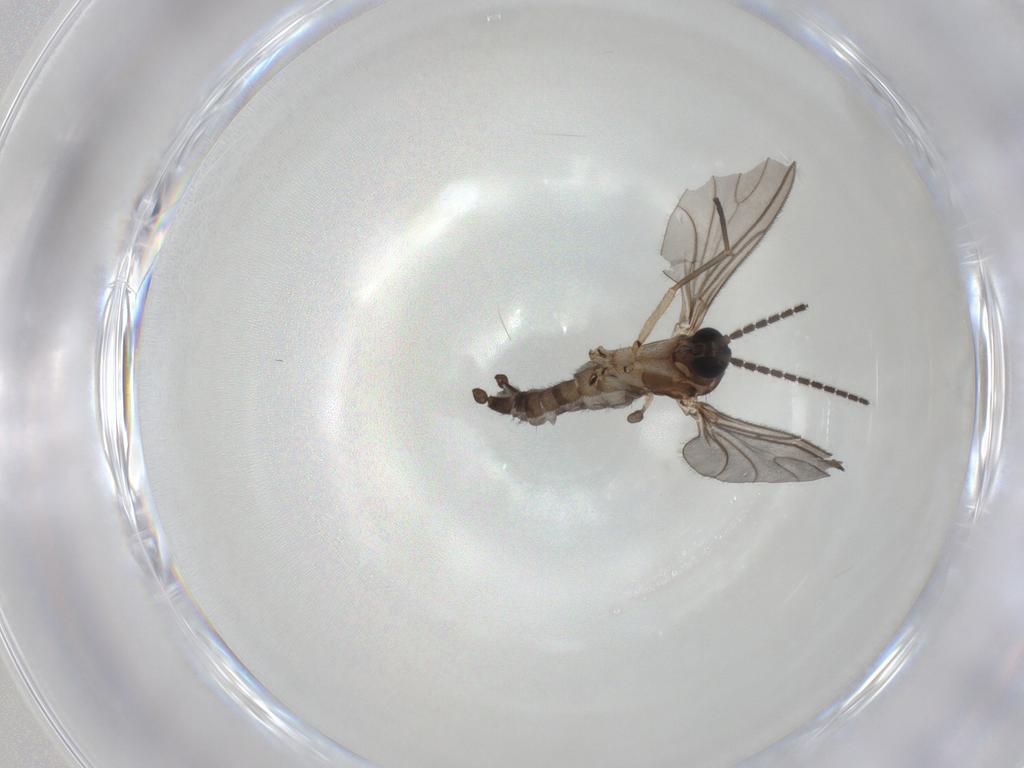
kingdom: Animalia
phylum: Arthropoda
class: Insecta
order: Diptera
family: Sciaridae
